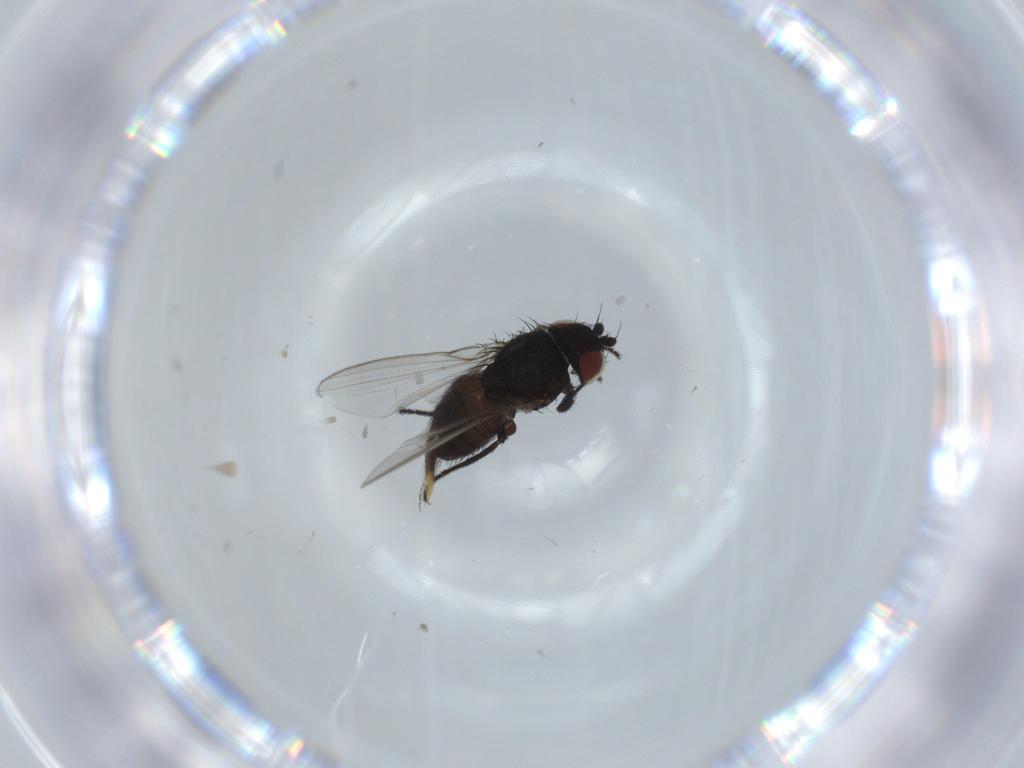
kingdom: Animalia
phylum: Arthropoda
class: Insecta
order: Diptera
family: Milichiidae
